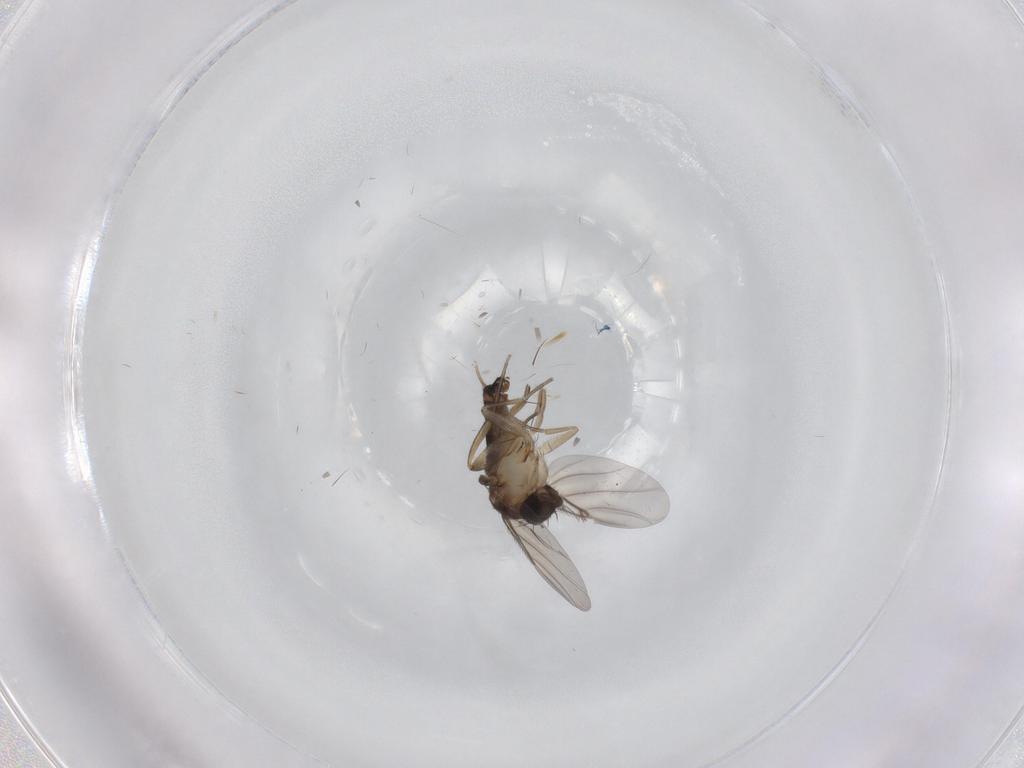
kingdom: Animalia
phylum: Arthropoda
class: Insecta
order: Diptera
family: Phoridae
